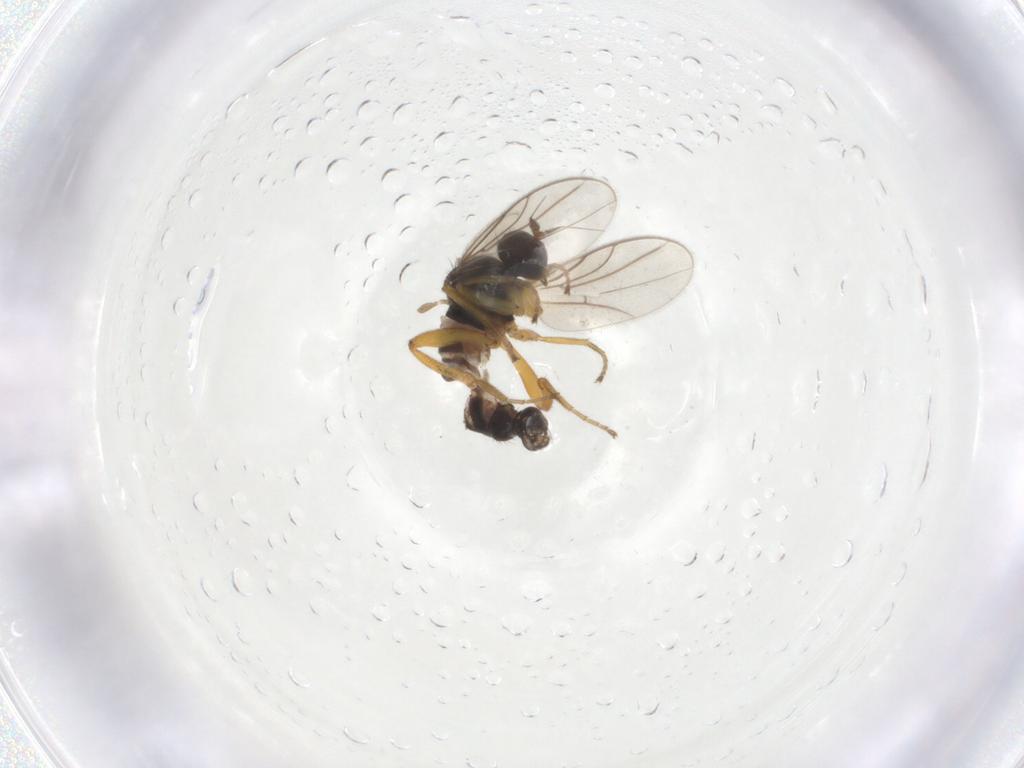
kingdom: Animalia
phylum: Arthropoda
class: Insecta
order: Diptera
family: Hybotidae
